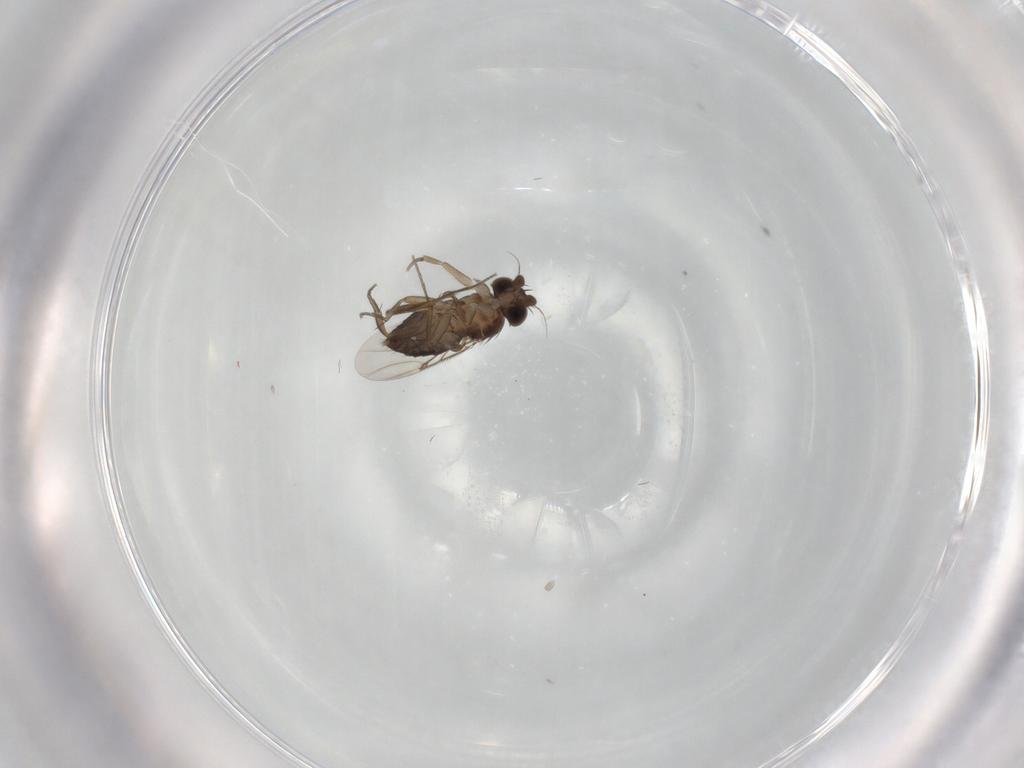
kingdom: Animalia
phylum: Arthropoda
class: Insecta
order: Diptera
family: Phoridae
